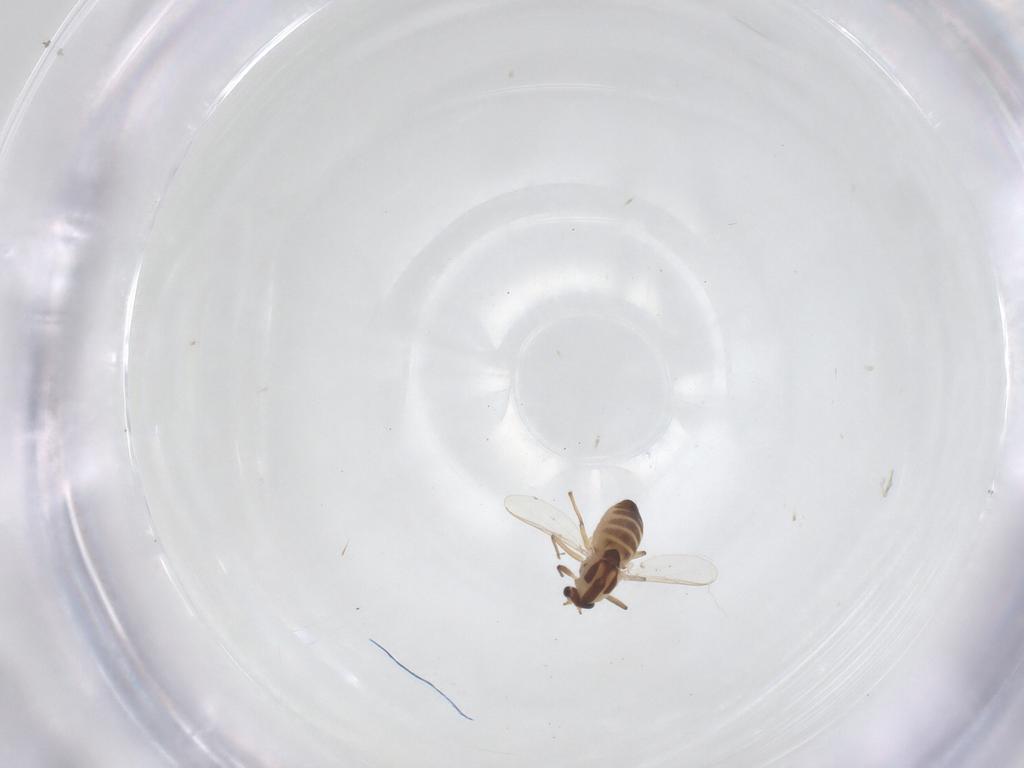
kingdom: Animalia
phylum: Arthropoda
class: Insecta
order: Diptera
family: Chironomidae
